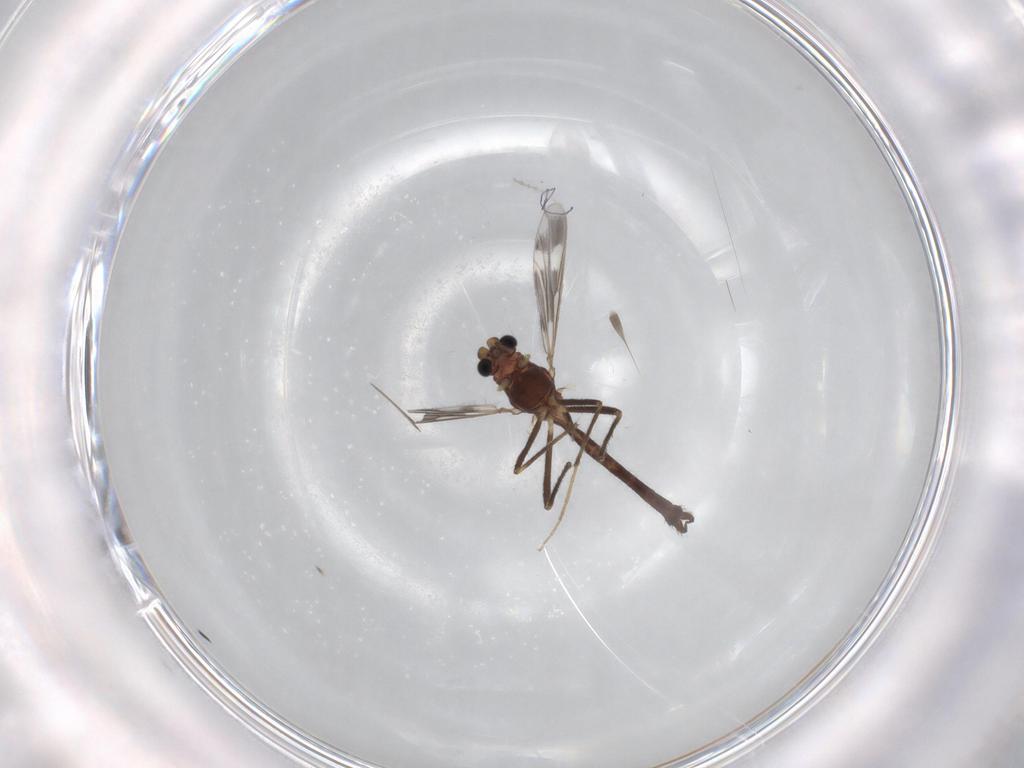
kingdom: Animalia
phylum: Arthropoda
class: Insecta
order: Diptera
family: Chironomidae
